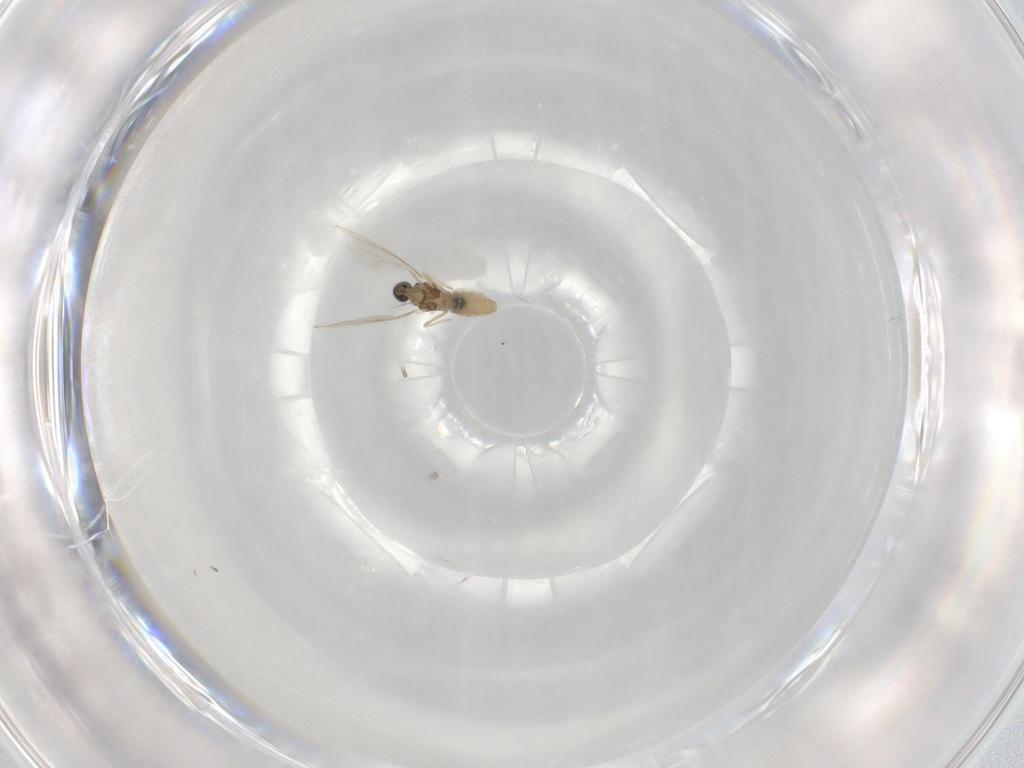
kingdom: Animalia
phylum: Arthropoda
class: Insecta
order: Diptera
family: Cecidomyiidae
